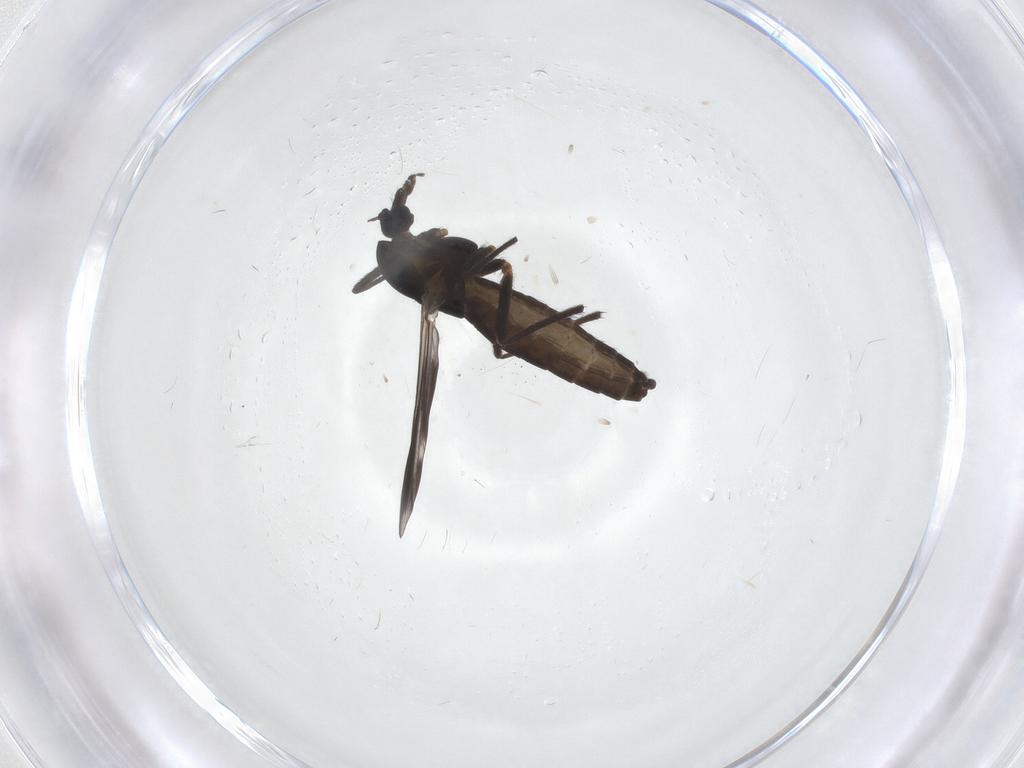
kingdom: Animalia
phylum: Arthropoda
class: Insecta
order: Diptera
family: Chironomidae
